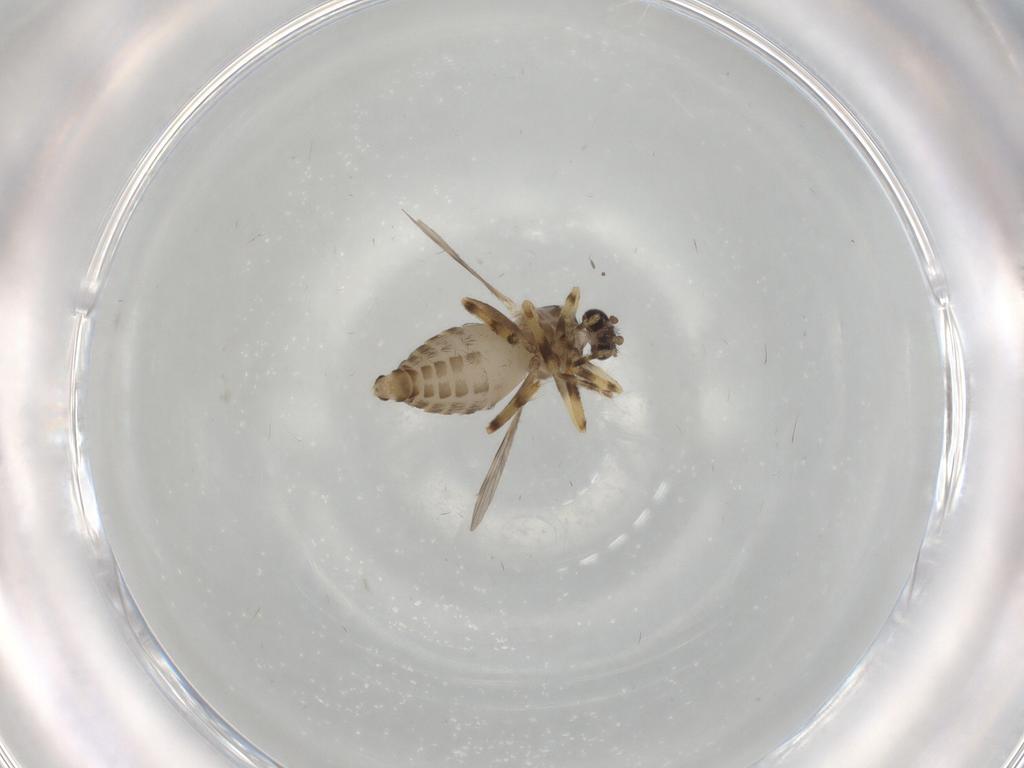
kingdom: Animalia
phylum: Arthropoda
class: Insecta
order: Diptera
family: Ceratopogonidae
